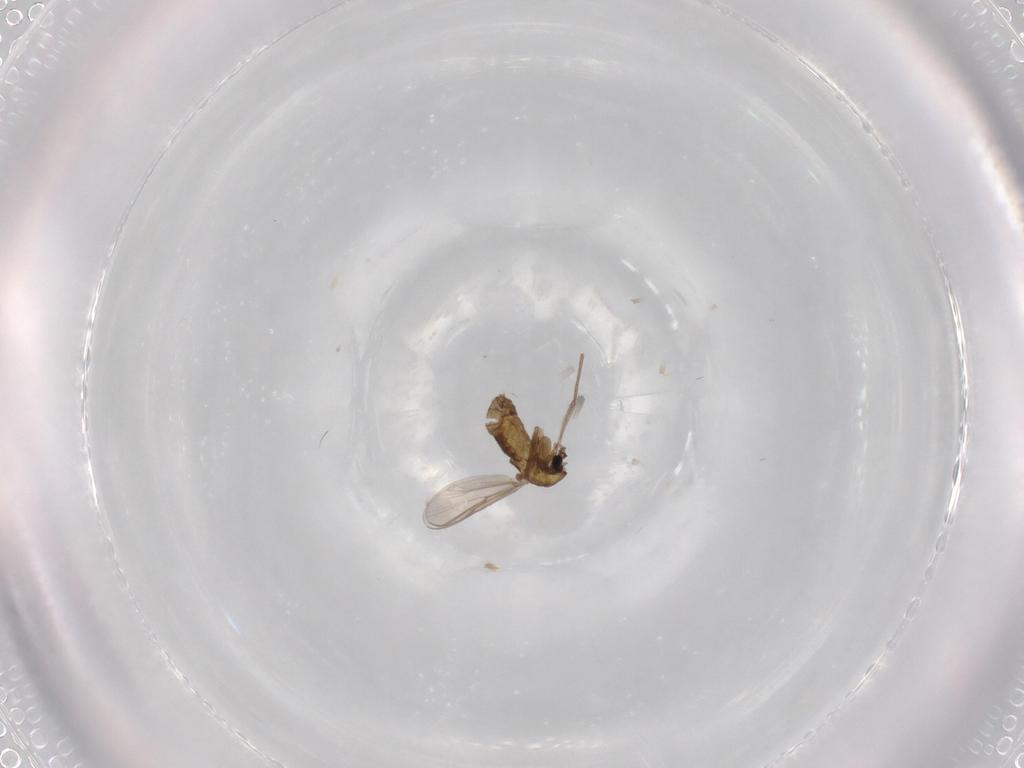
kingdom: Animalia
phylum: Arthropoda
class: Insecta
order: Diptera
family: Chironomidae
